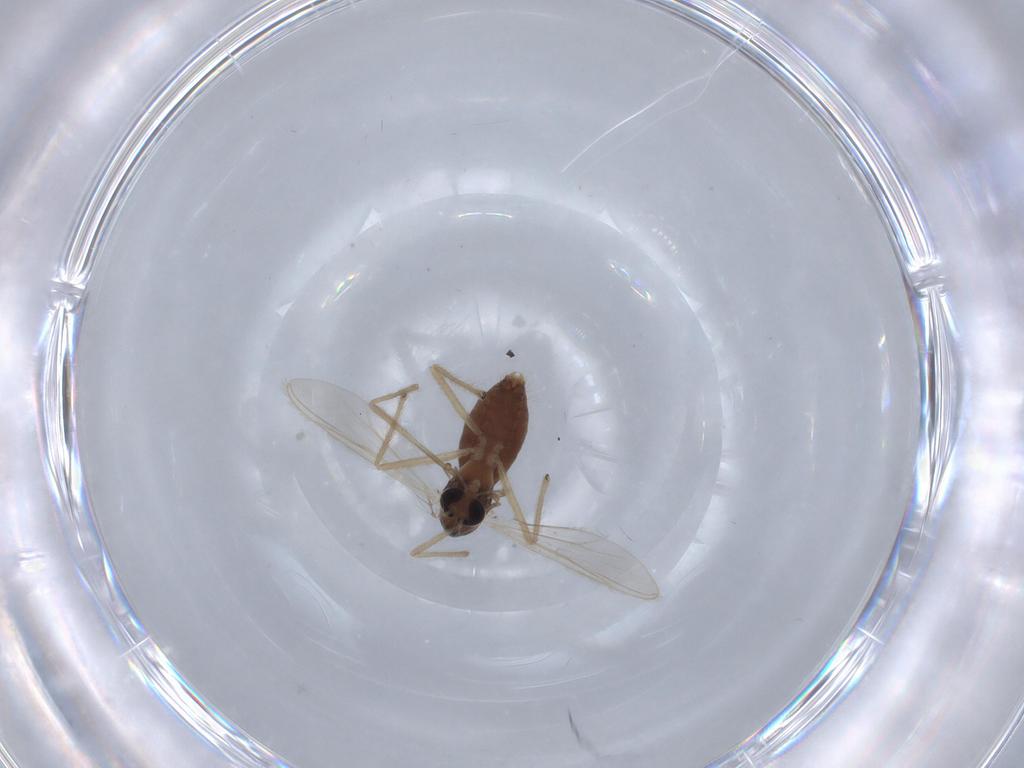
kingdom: Animalia
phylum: Arthropoda
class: Insecta
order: Diptera
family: Chironomidae
